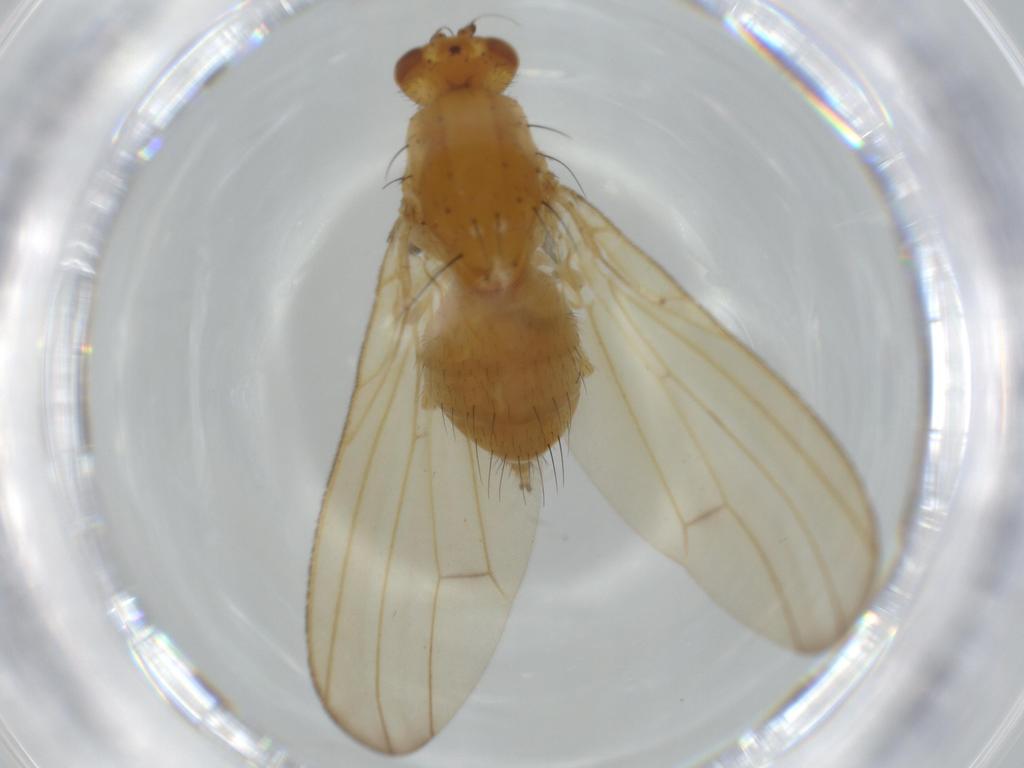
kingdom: Animalia
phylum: Arthropoda
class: Insecta
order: Diptera
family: Lauxaniidae
